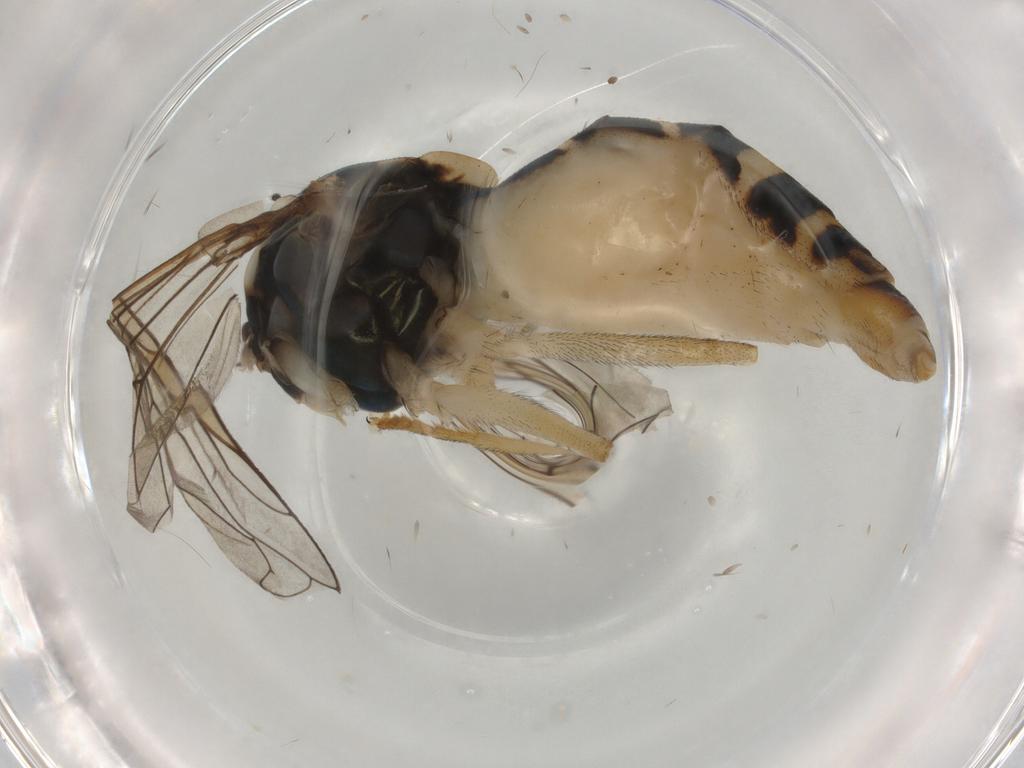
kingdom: Animalia
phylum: Arthropoda
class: Insecta
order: Diptera
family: Syrphidae
